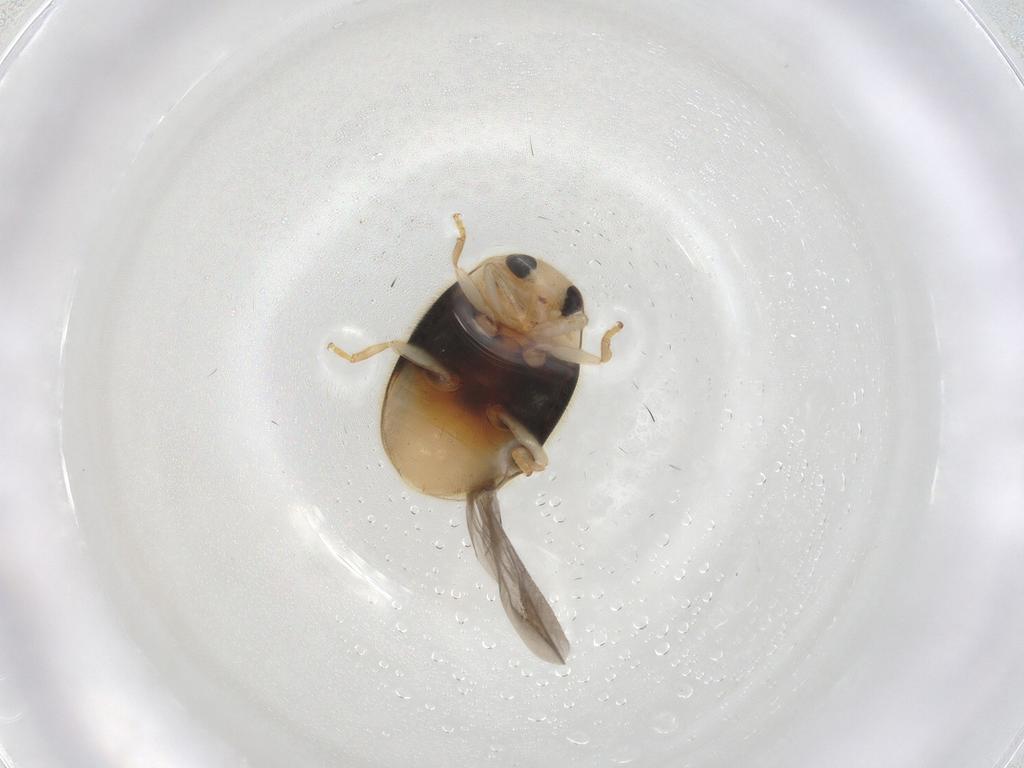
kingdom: Animalia
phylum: Arthropoda
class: Insecta
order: Coleoptera
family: Coccinellidae
